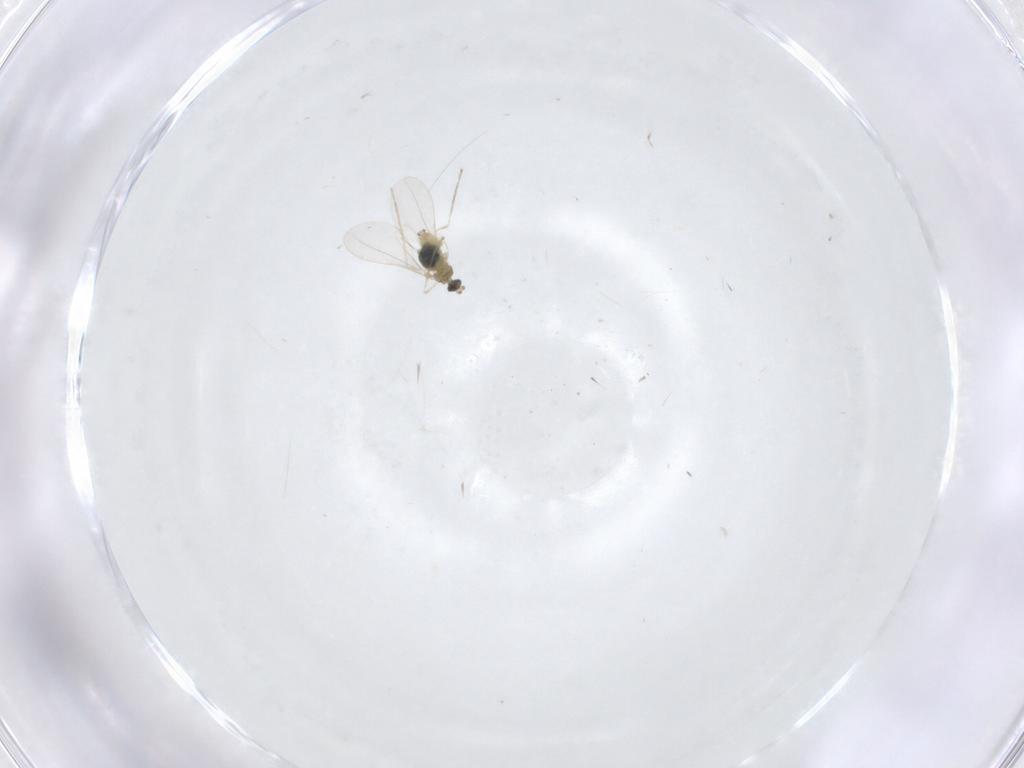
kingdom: Animalia
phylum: Arthropoda
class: Insecta
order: Diptera
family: Cecidomyiidae
